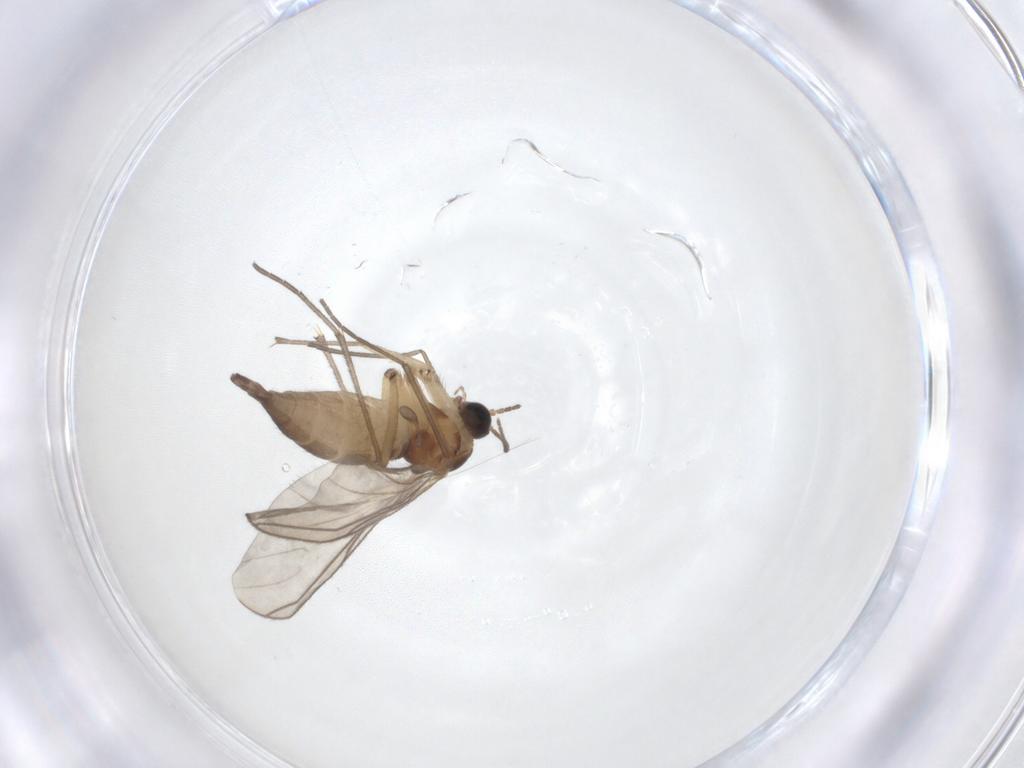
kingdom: Animalia
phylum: Arthropoda
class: Insecta
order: Diptera
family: Sciaridae
